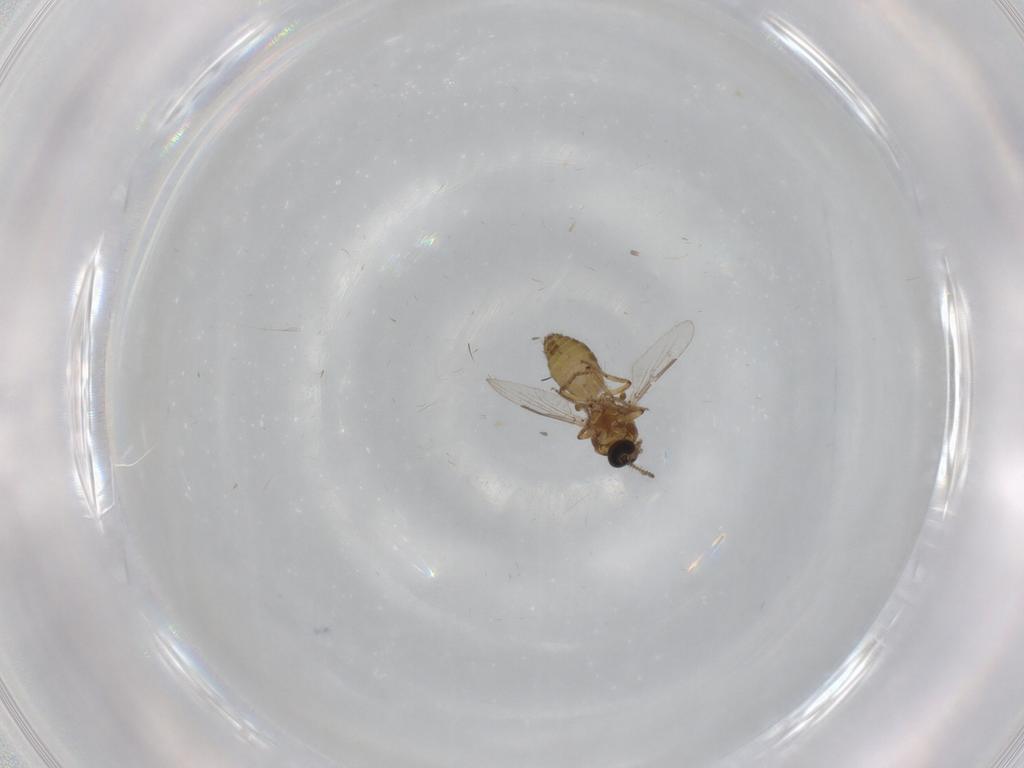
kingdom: Animalia
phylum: Arthropoda
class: Insecta
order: Diptera
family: Ceratopogonidae
